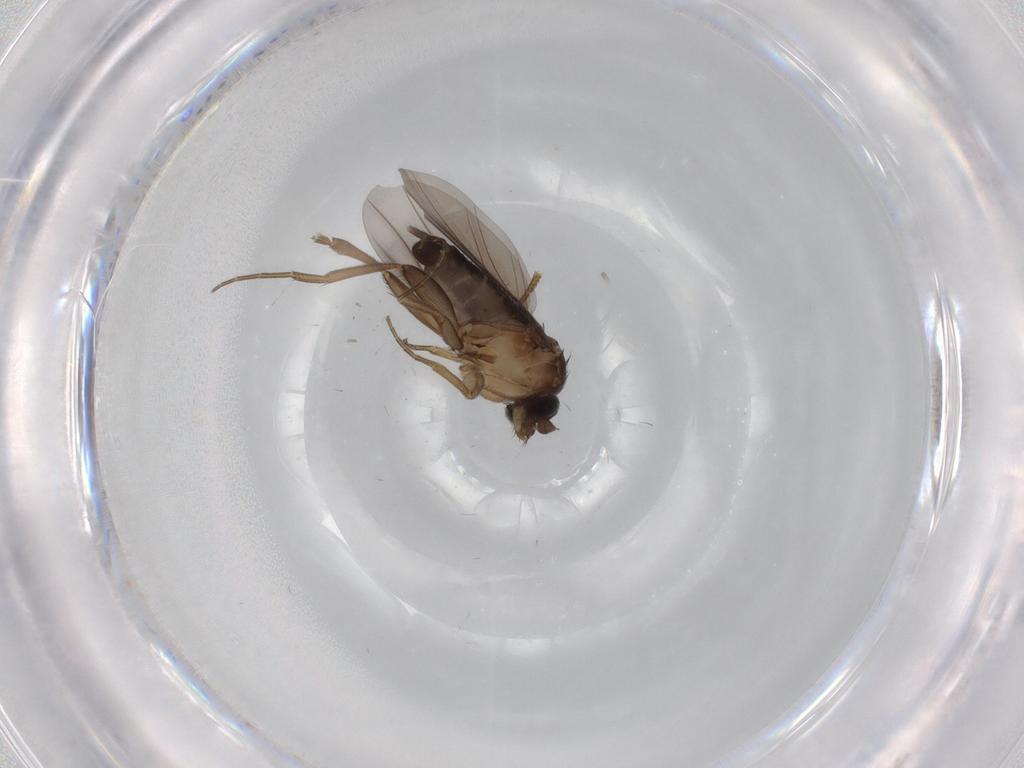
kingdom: Animalia
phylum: Arthropoda
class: Insecta
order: Diptera
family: Phoridae
